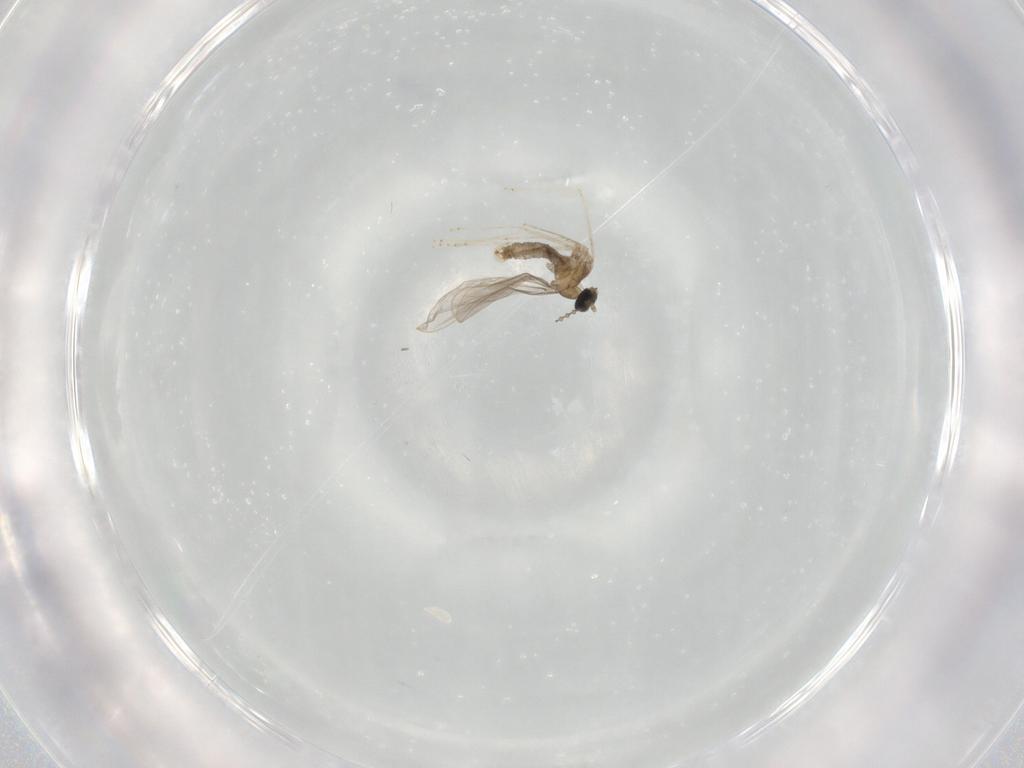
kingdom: Animalia
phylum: Arthropoda
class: Insecta
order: Diptera
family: Cecidomyiidae
